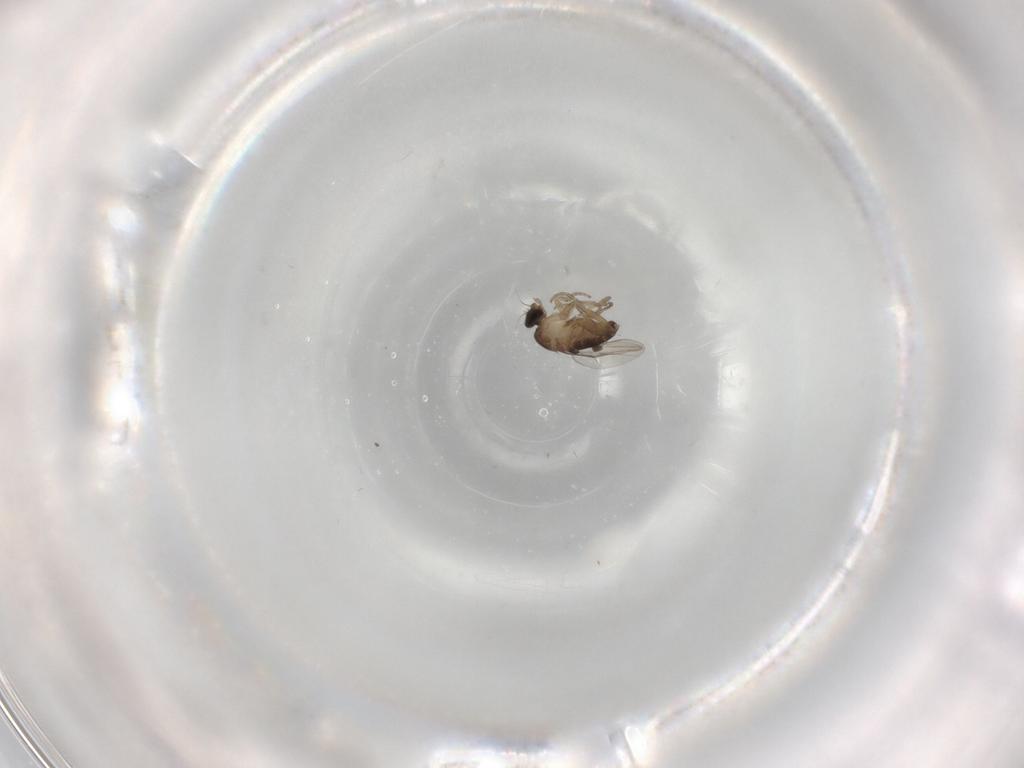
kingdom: Animalia
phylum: Arthropoda
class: Insecta
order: Diptera
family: Phoridae
